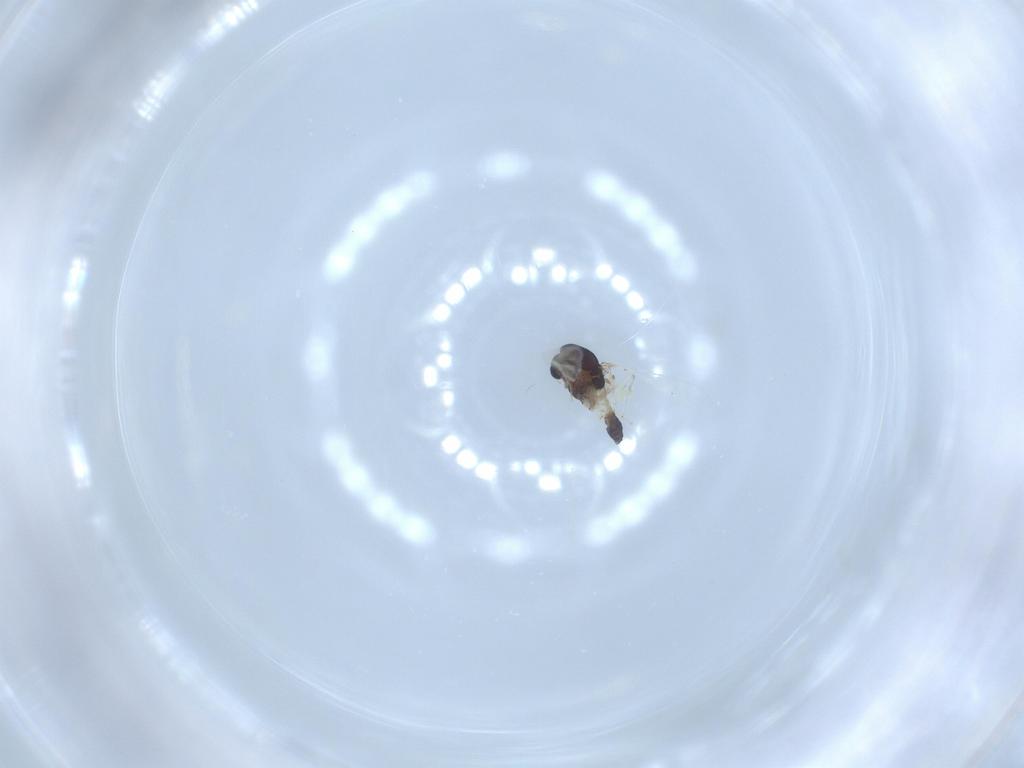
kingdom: Animalia
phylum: Arthropoda
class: Insecta
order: Diptera
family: Chironomidae
